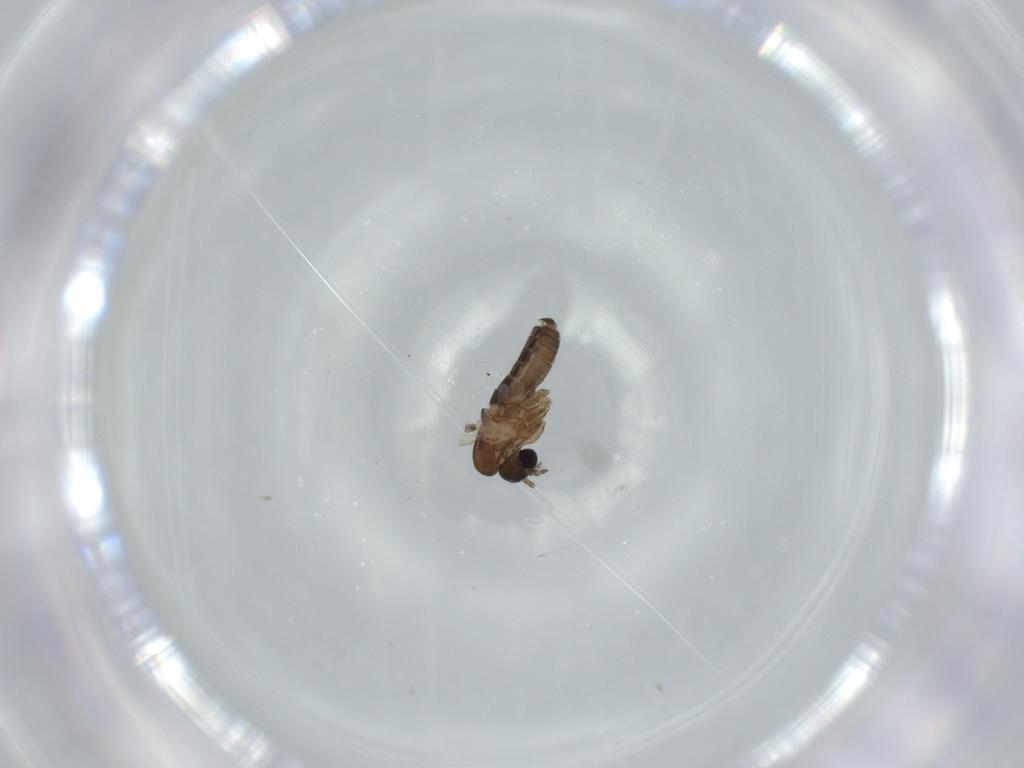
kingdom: Animalia
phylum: Arthropoda
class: Insecta
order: Diptera
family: Psychodidae
